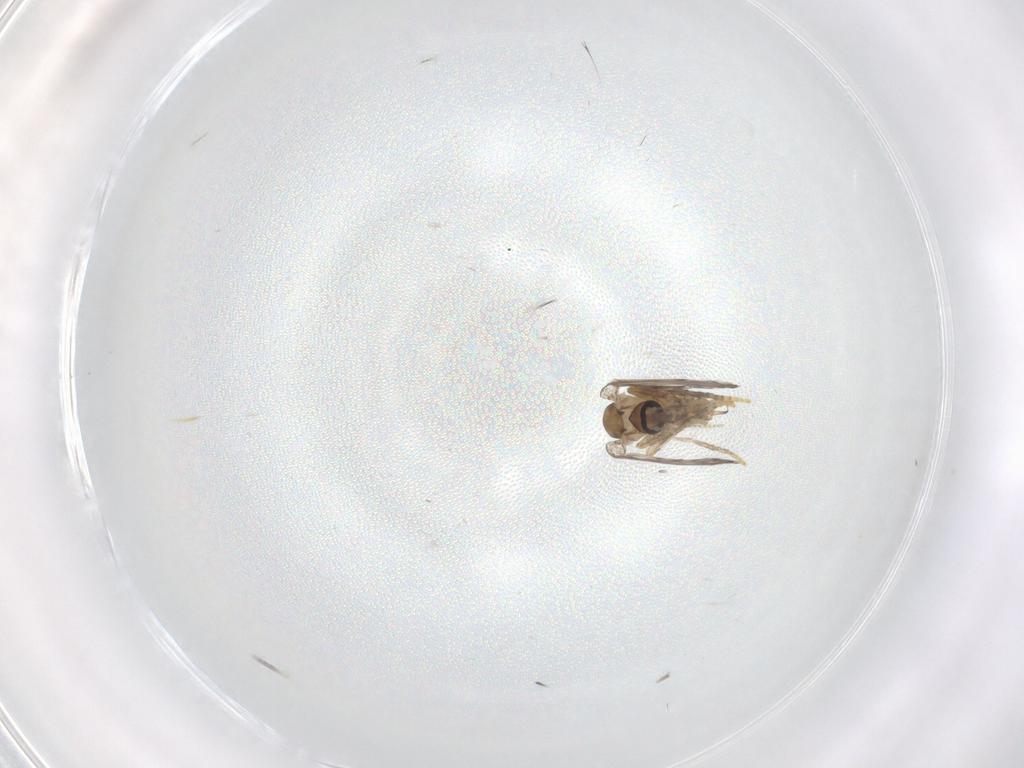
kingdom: Animalia
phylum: Arthropoda
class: Insecta
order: Diptera
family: Psychodidae
